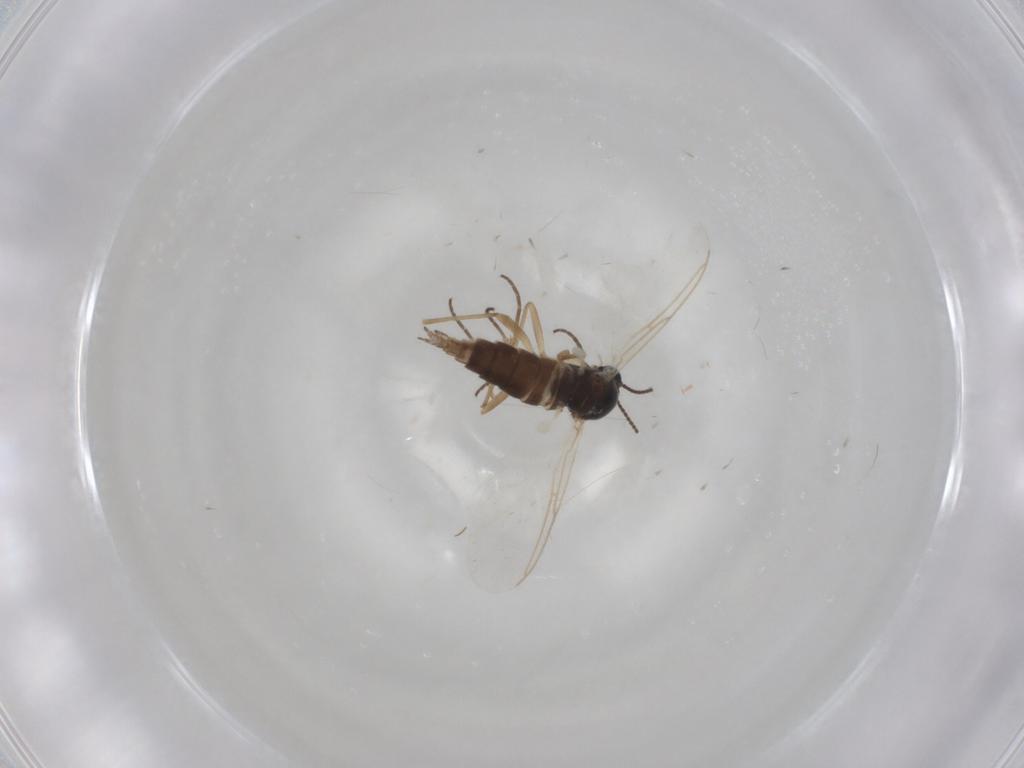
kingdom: Animalia
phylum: Arthropoda
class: Insecta
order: Diptera
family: Sciaridae
